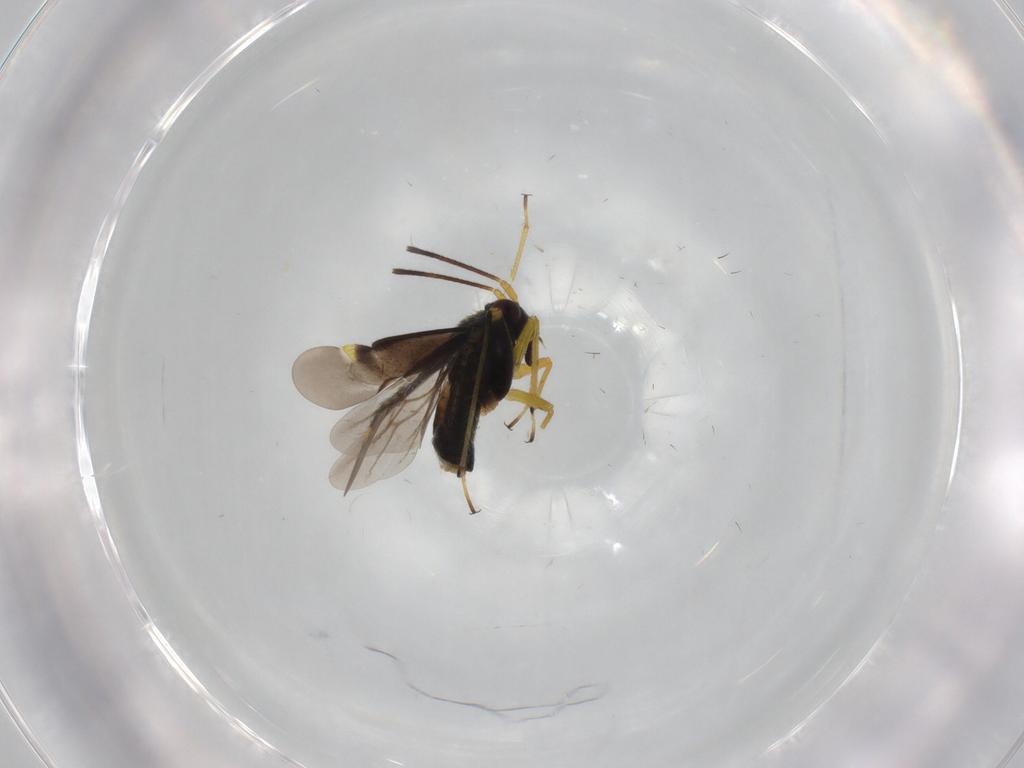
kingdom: Animalia
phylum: Arthropoda
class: Insecta
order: Hemiptera
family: Miridae
